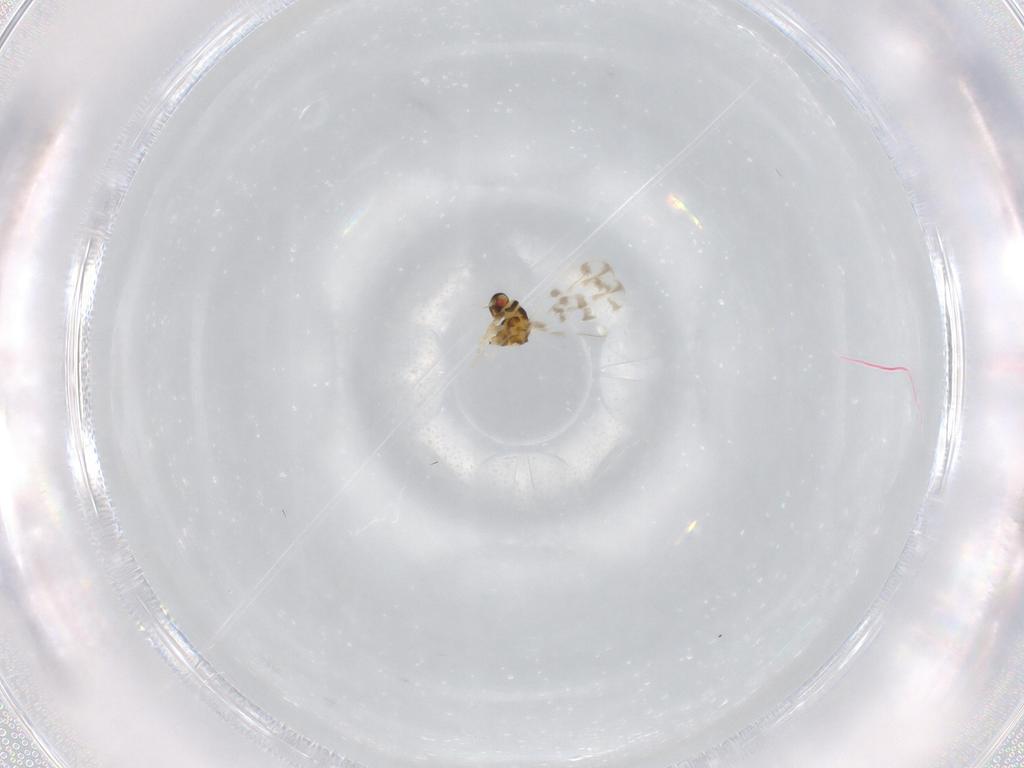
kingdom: Animalia
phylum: Arthropoda
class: Insecta
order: Hemiptera
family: Aleyrodidae
